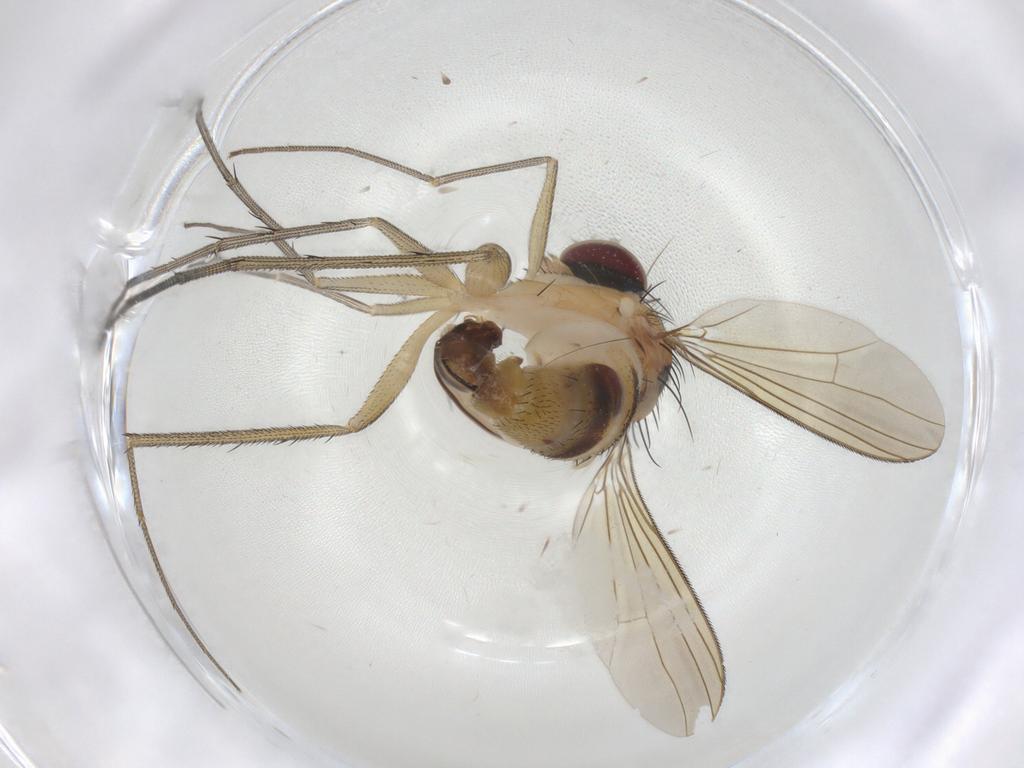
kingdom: Animalia
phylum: Arthropoda
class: Insecta
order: Diptera
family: Dolichopodidae
